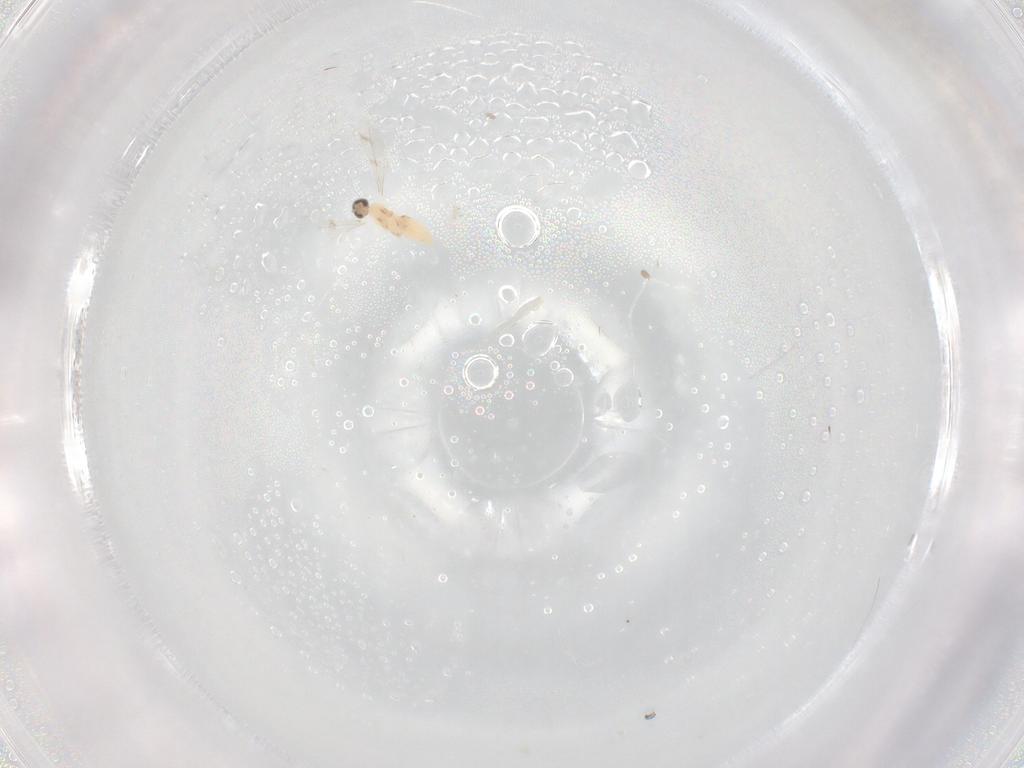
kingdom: Animalia
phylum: Arthropoda
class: Insecta
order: Diptera
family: Cecidomyiidae
